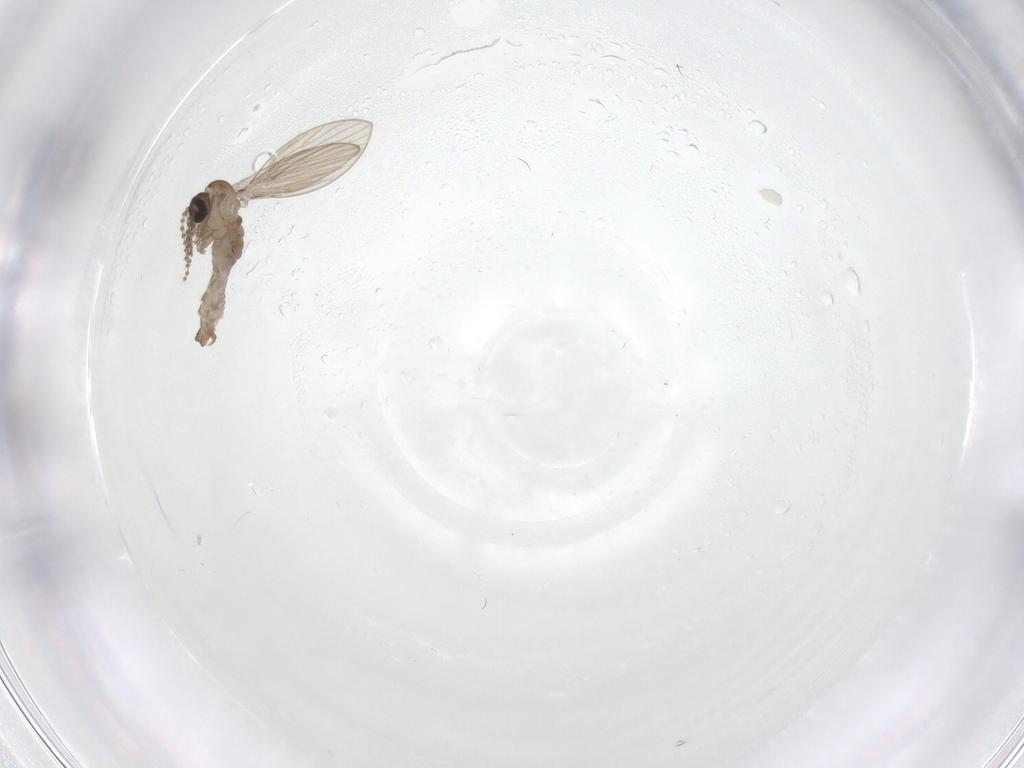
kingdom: Animalia
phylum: Arthropoda
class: Insecta
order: Diptera
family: Psychodidae
